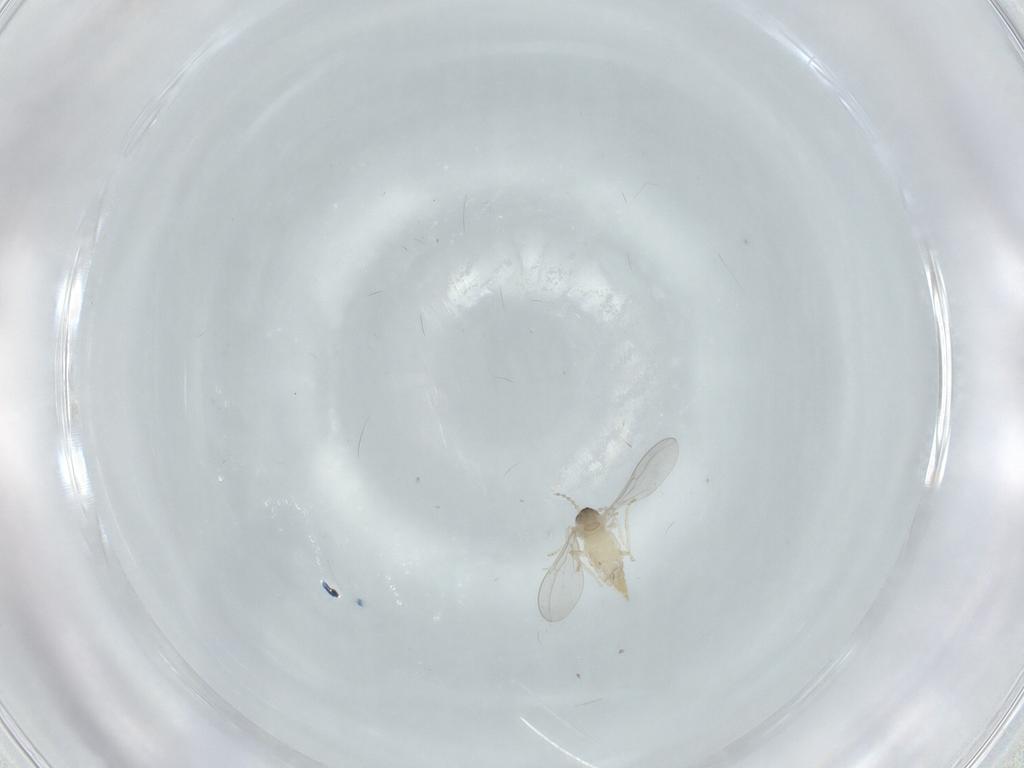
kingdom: Animalia
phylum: Arthropoda
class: Insecta
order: Diptera
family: Cecidomyiidae
